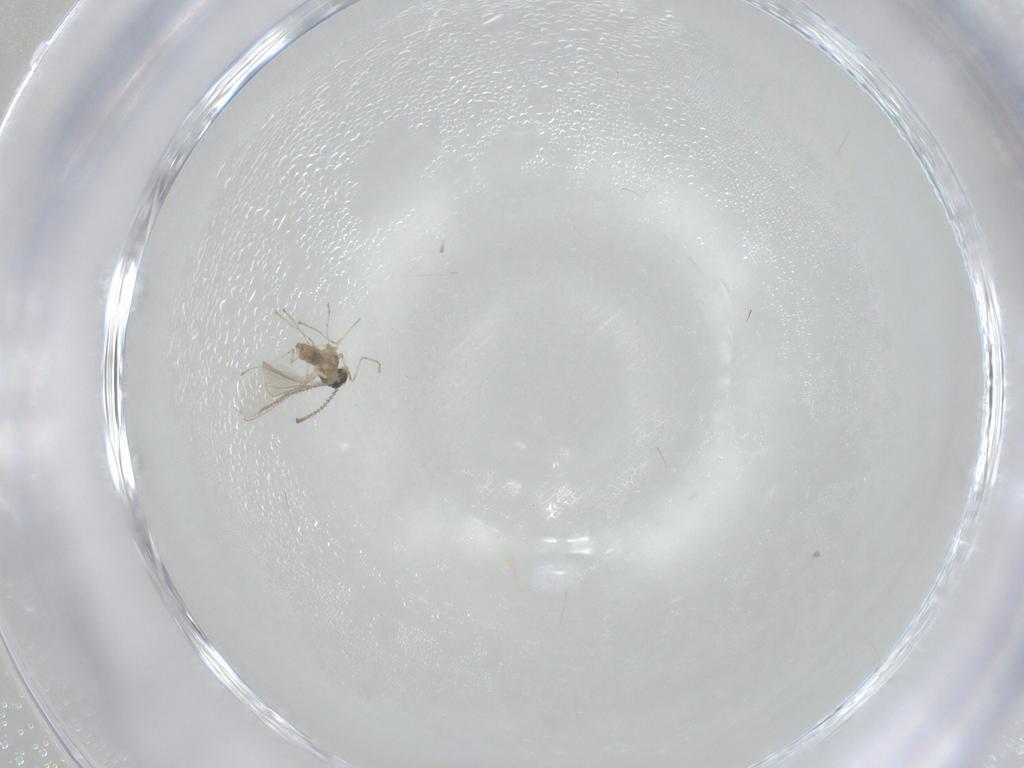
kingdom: Animalia
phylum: Arthropoda
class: Insecta
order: Diptera
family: Cecidomyiidae
